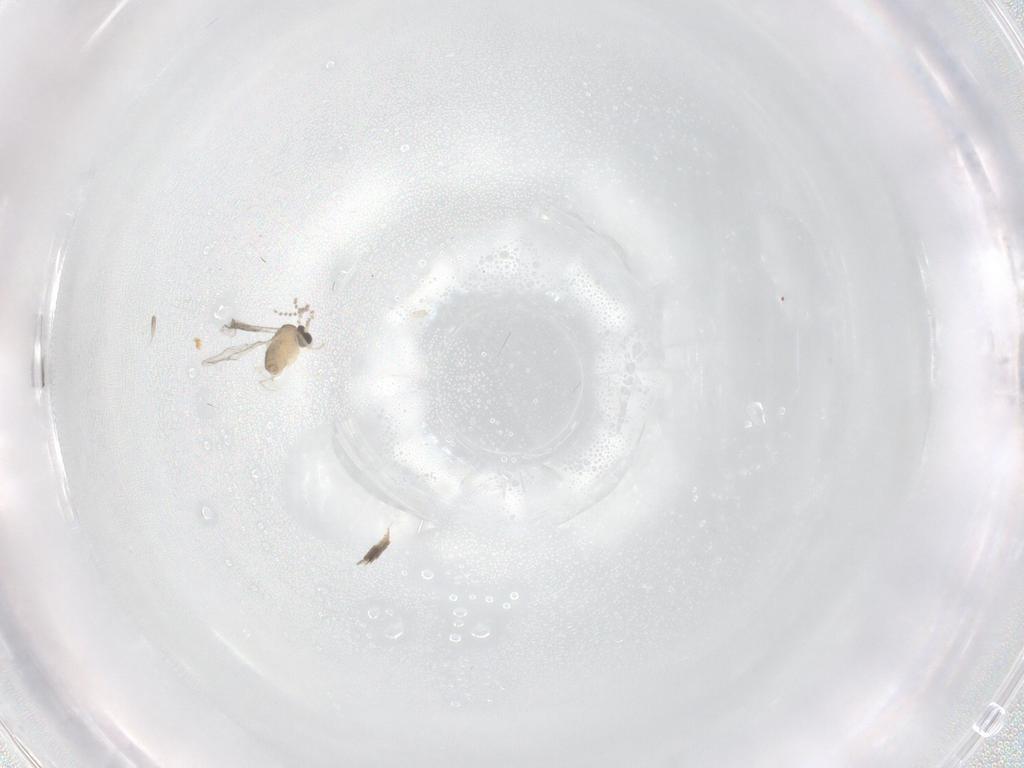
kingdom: Animalia
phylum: Arthropoda
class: Insecta
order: Diptera
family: Cecidomyiidae
